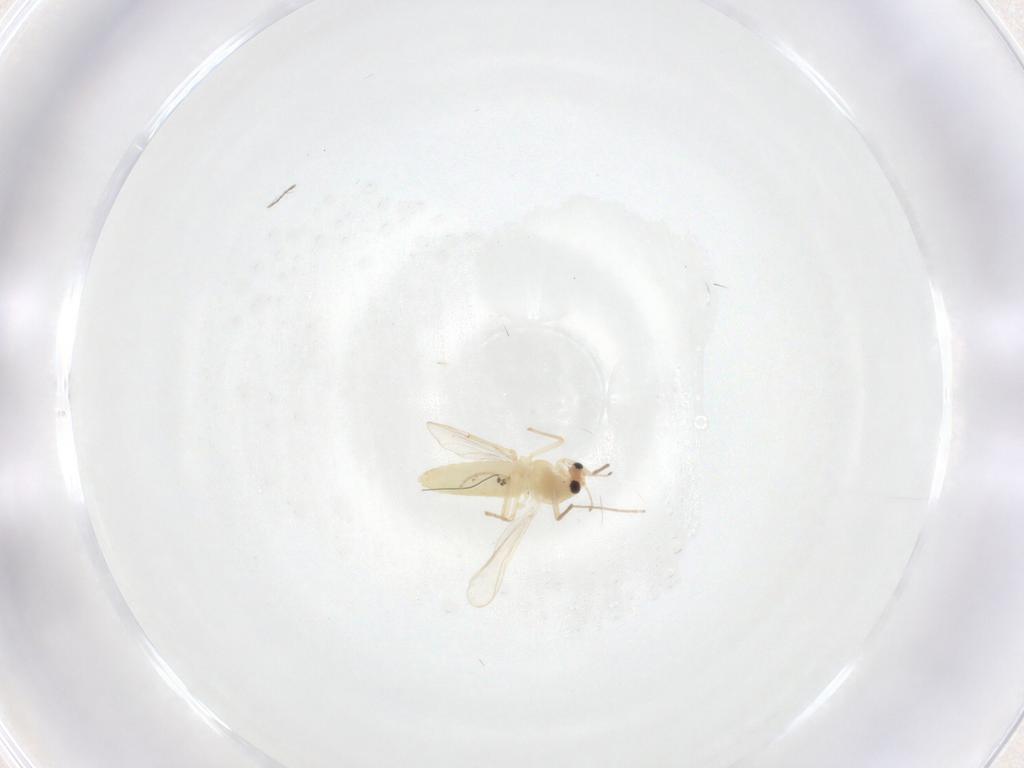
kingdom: Animalia
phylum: Arthropoda
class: Insecta
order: Diptera
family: Chironomidae
